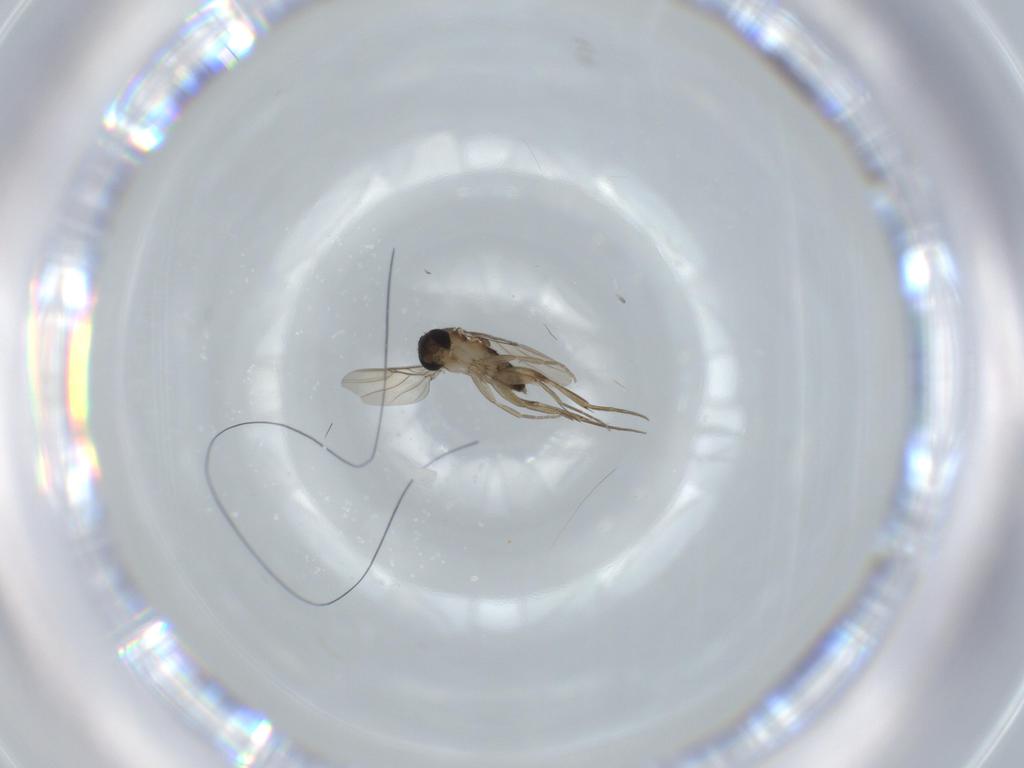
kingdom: Animalia
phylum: Arthropoda
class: Insecta
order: Diptera
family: Phoridae
